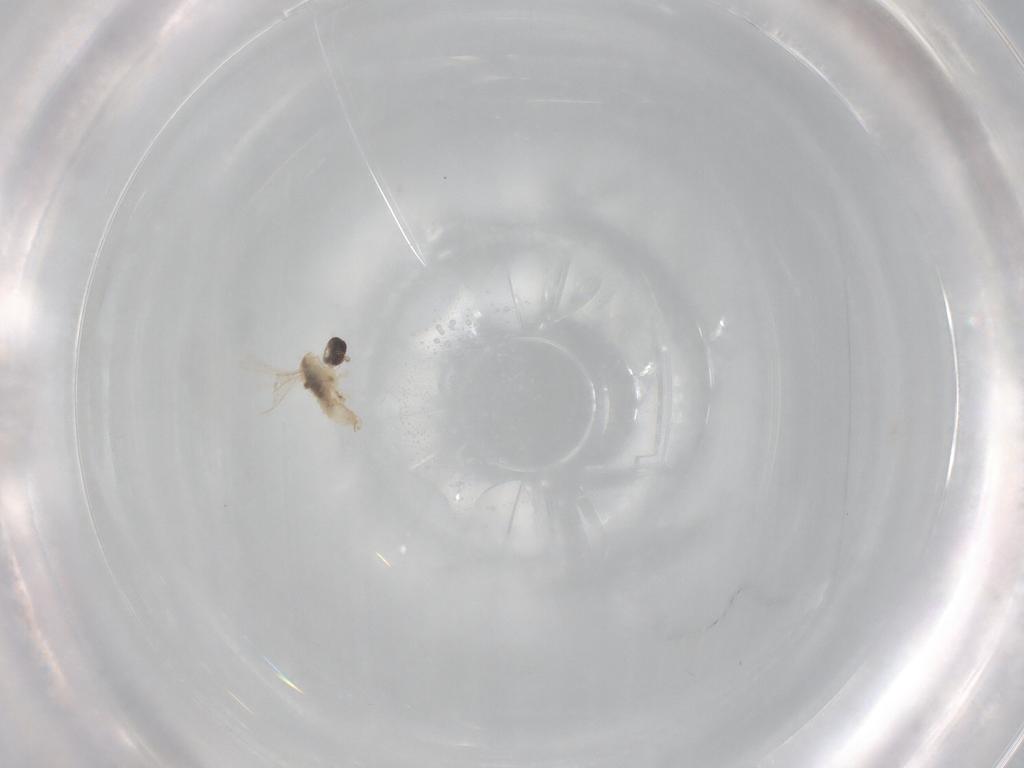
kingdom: Animalia
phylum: Arthropoda
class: Insecta
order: Diptera
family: Cecidomyiidae
